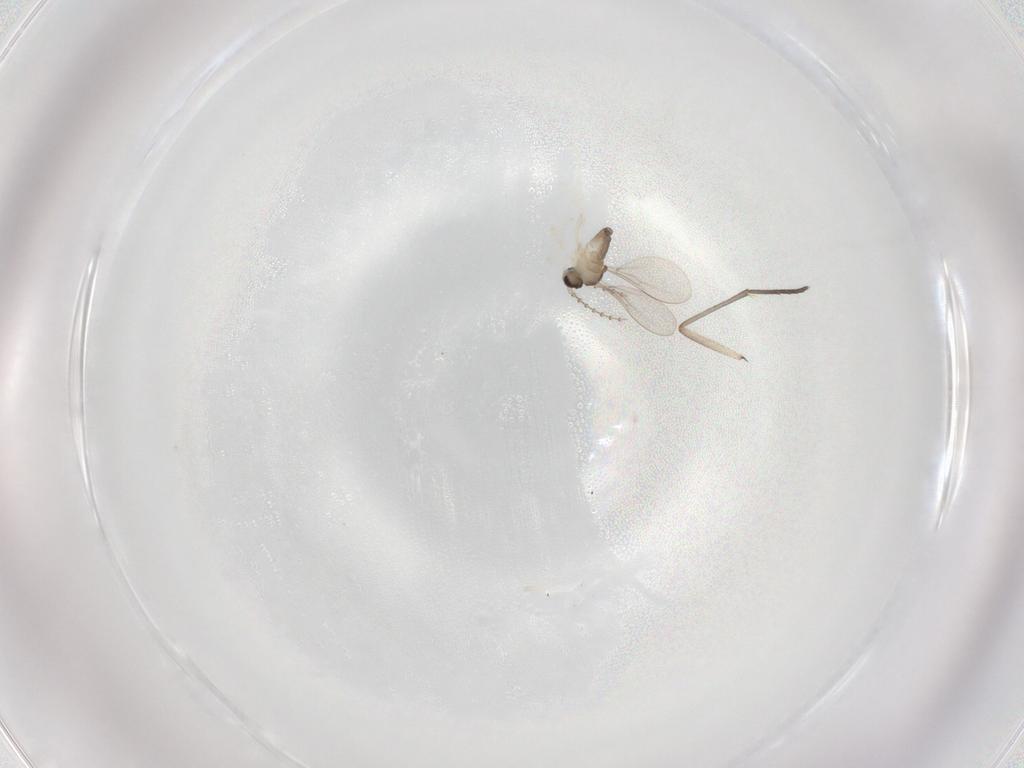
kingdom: Animalia
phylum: Arthropoda
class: Insecta
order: Diptera
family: Cecidomyiidae
